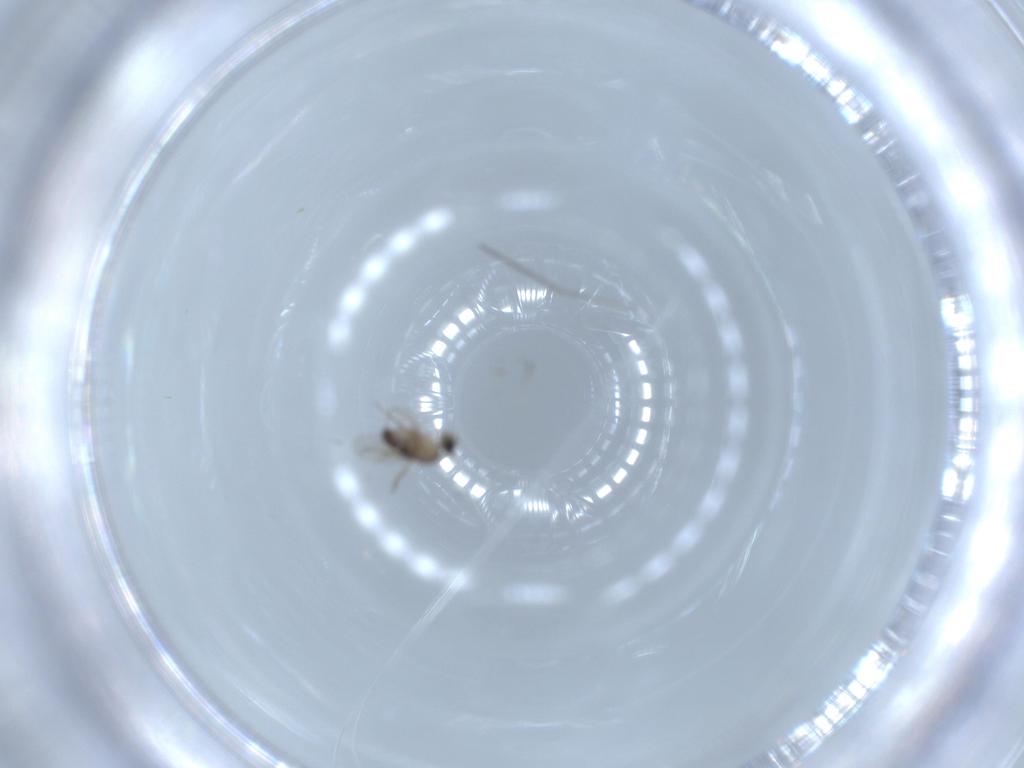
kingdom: Animalia
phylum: Arthropoda
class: Insecta
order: Diptera
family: Phoridae
